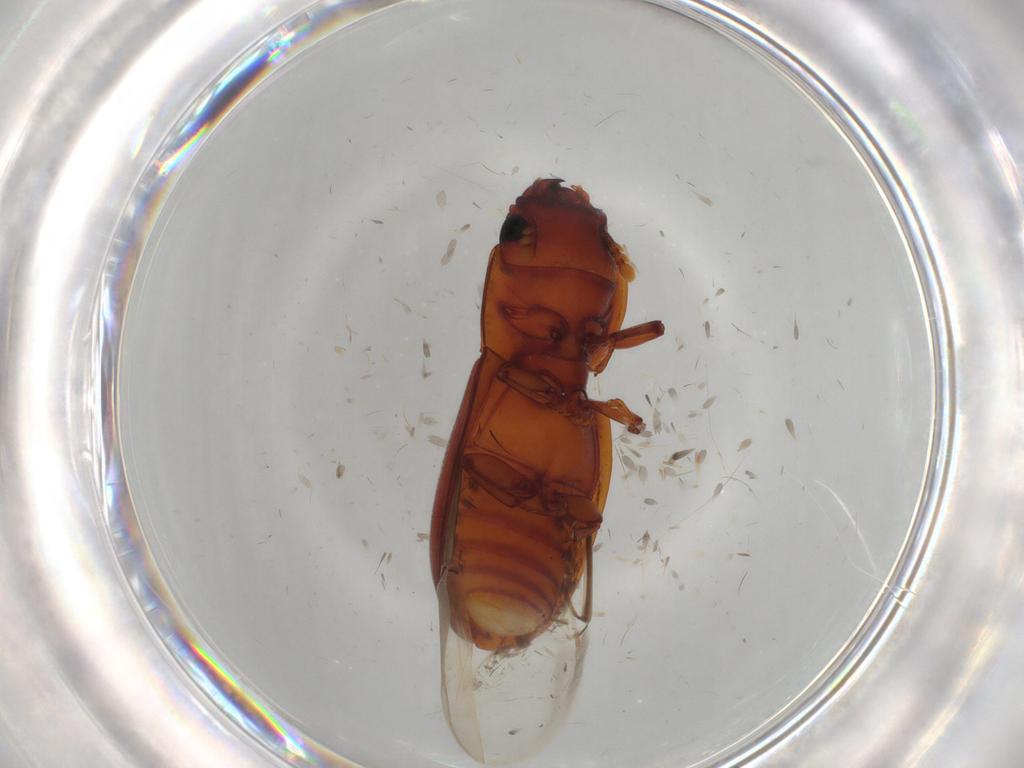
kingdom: Animalia
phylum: Arthropoda
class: Insecta
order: Coleoptera
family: Trogossitidae
